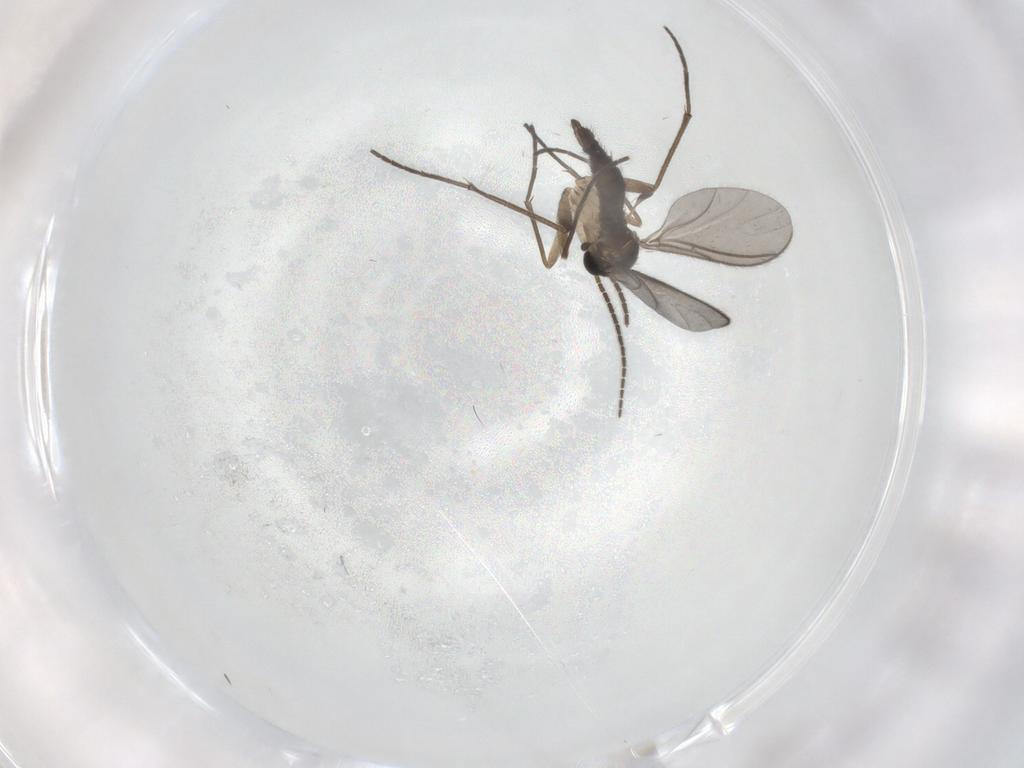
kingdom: Animalia
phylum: Arthropoda
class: Insecta
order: Diptera
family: Sciaridae
